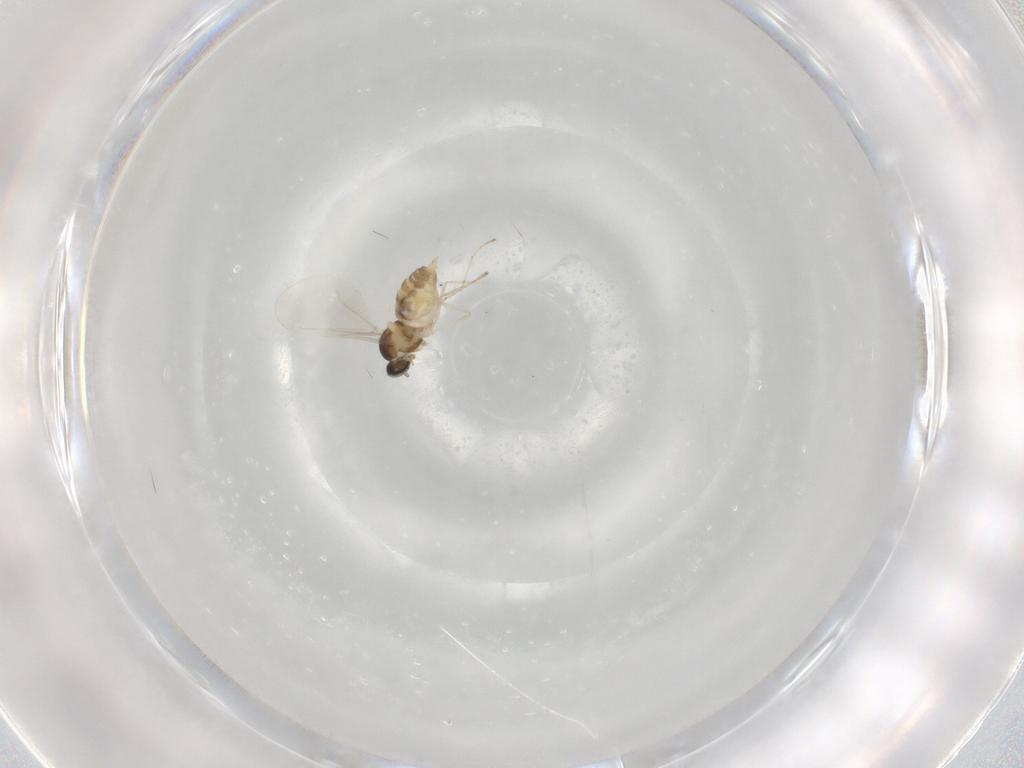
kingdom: Animalia
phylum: Arthropoda
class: Insecta
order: Diptera
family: Cecidomyiidae
